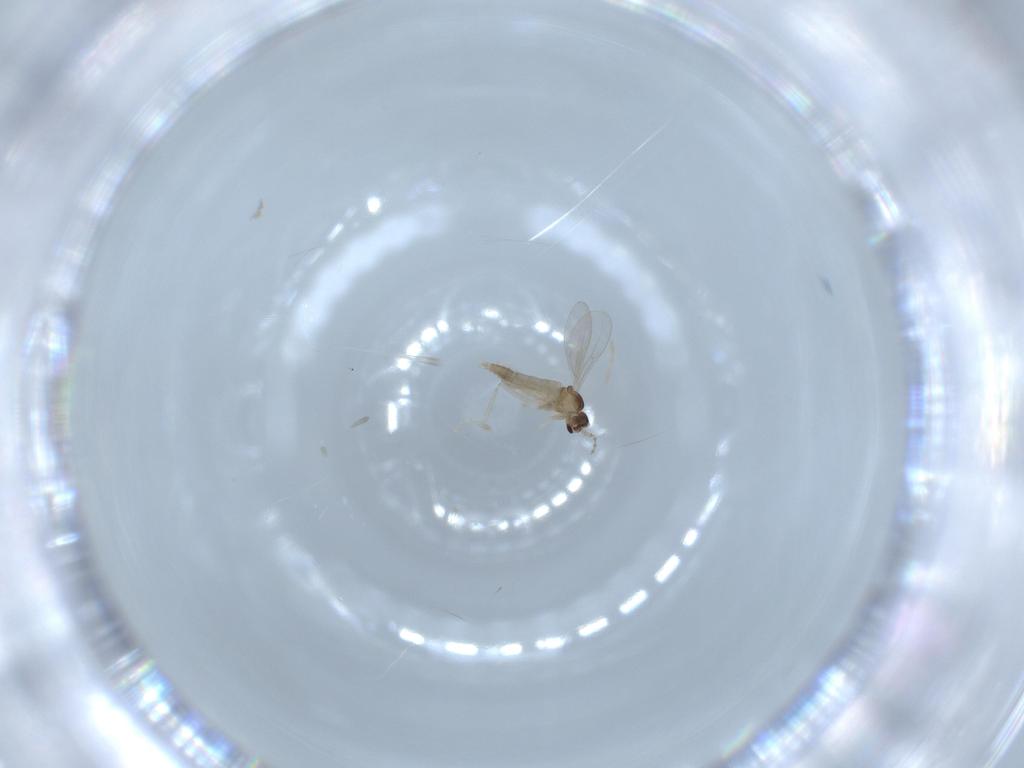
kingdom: Animalia
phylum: Arthropoda
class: Insecta
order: Diptera
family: Cecidomyiidae
